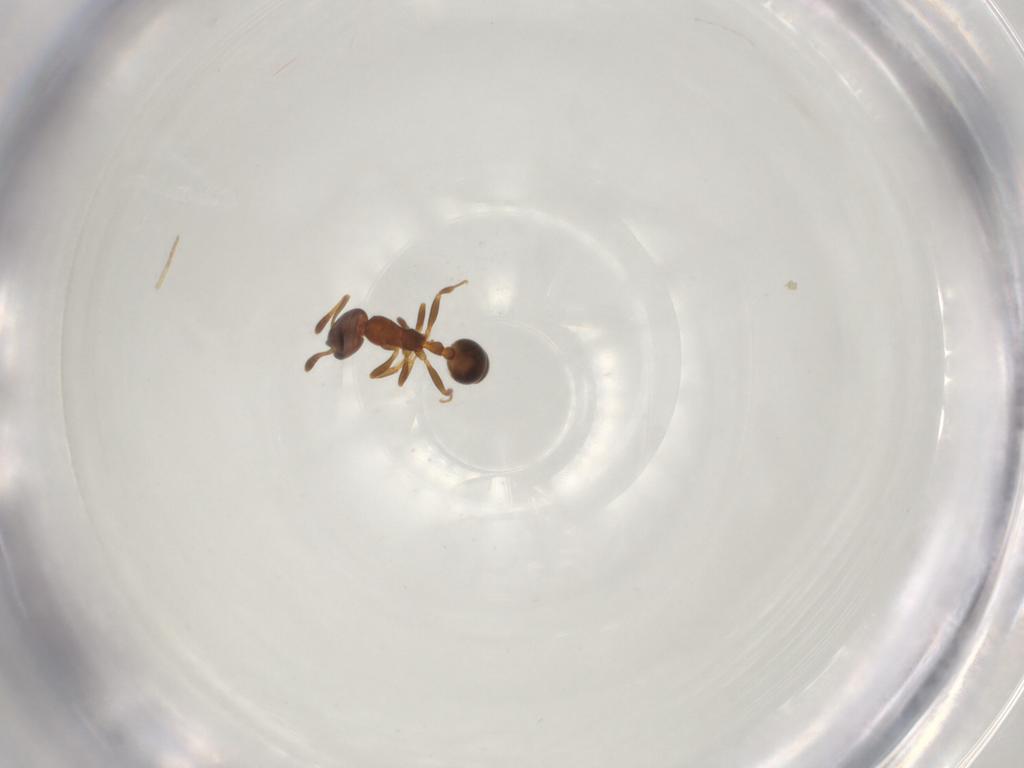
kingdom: Animalia
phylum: Arthropoda
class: Insecta
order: Hymenoptera
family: Formicidae
